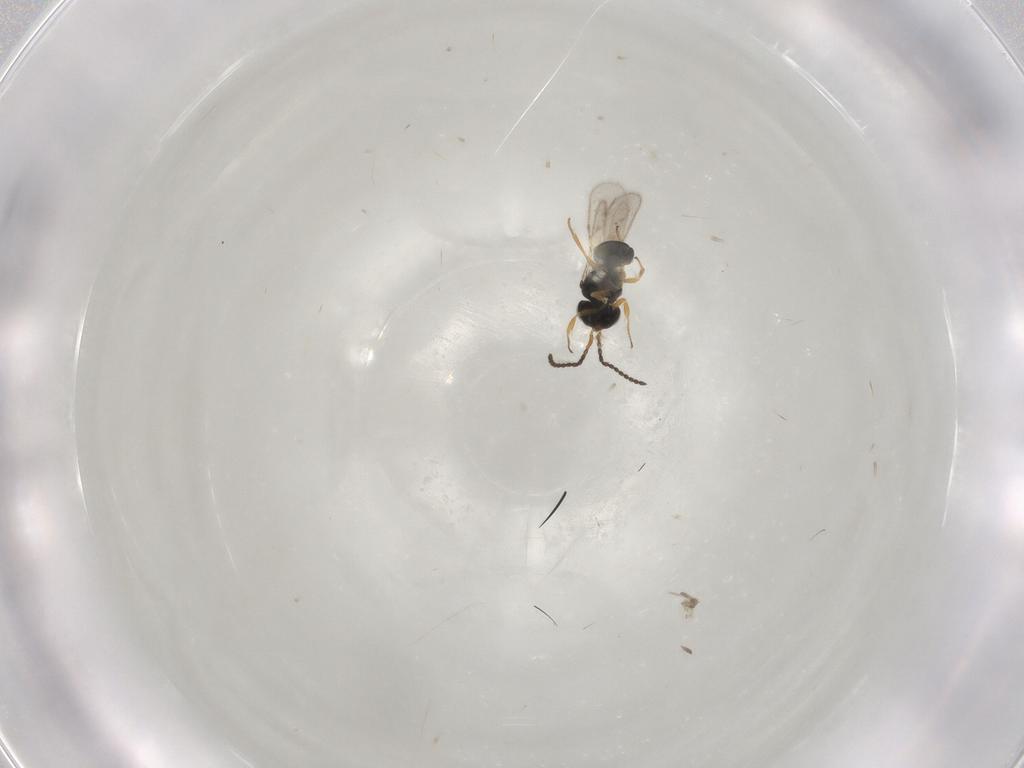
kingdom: Animalia
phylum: Arthropoda
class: Insecta
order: Hymenoptera
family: Scelionidae
